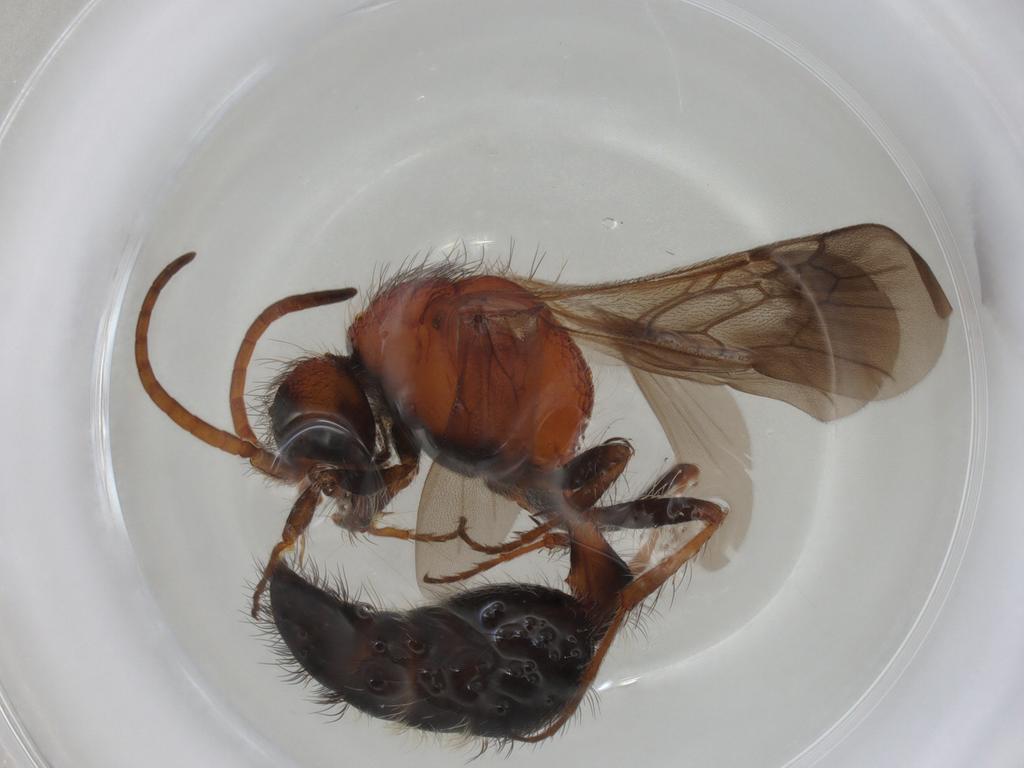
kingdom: Animalia
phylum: Arthropoda
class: Insecta
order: Hymenoptera
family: Mutillidae
